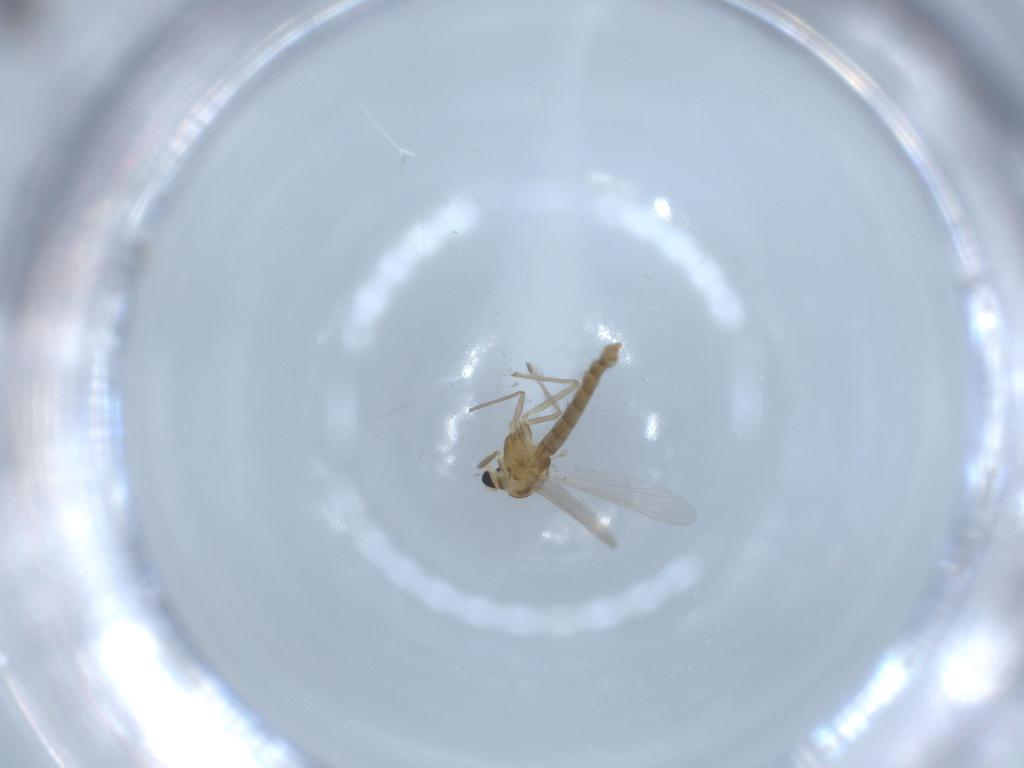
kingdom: Animalia
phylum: Arthropoda
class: Insecta
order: Diptera
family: Chironomidae
